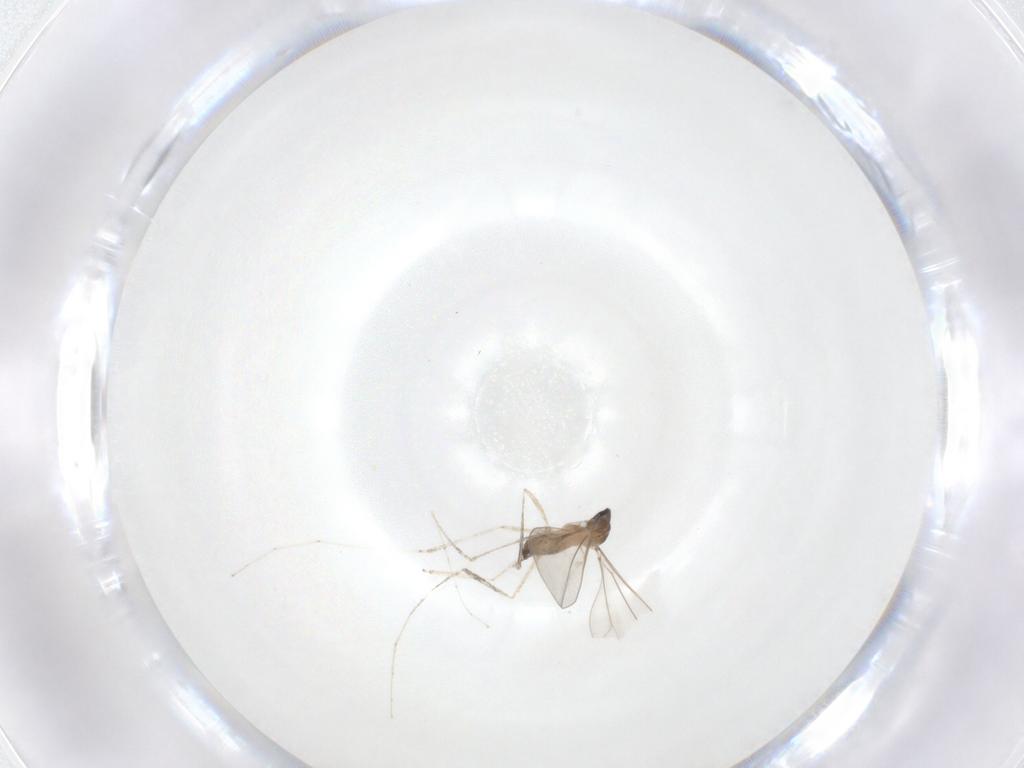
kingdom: Animalia
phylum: Arthropoda
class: Insecta
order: Diptera
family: Cecidomyiidae
